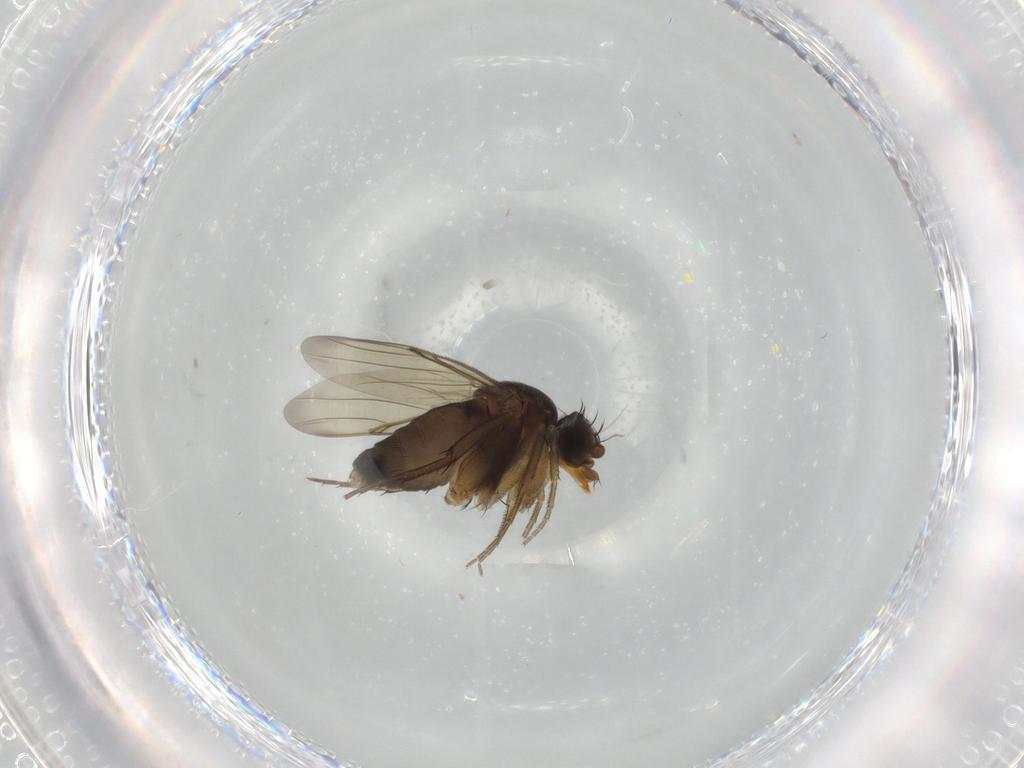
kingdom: Animalia
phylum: Arthropoda
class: Insecta
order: Diptera
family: Phoridae
